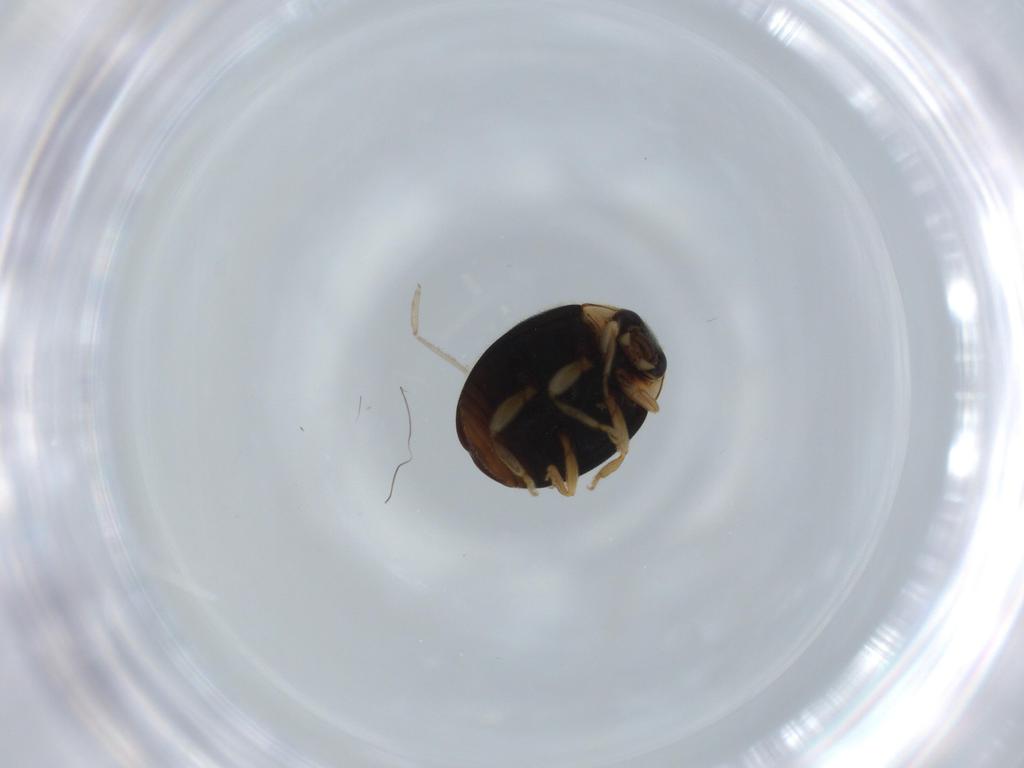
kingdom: Animalia
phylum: Arthropoda
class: Insecta
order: Coleoptera
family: Coccinellidae
